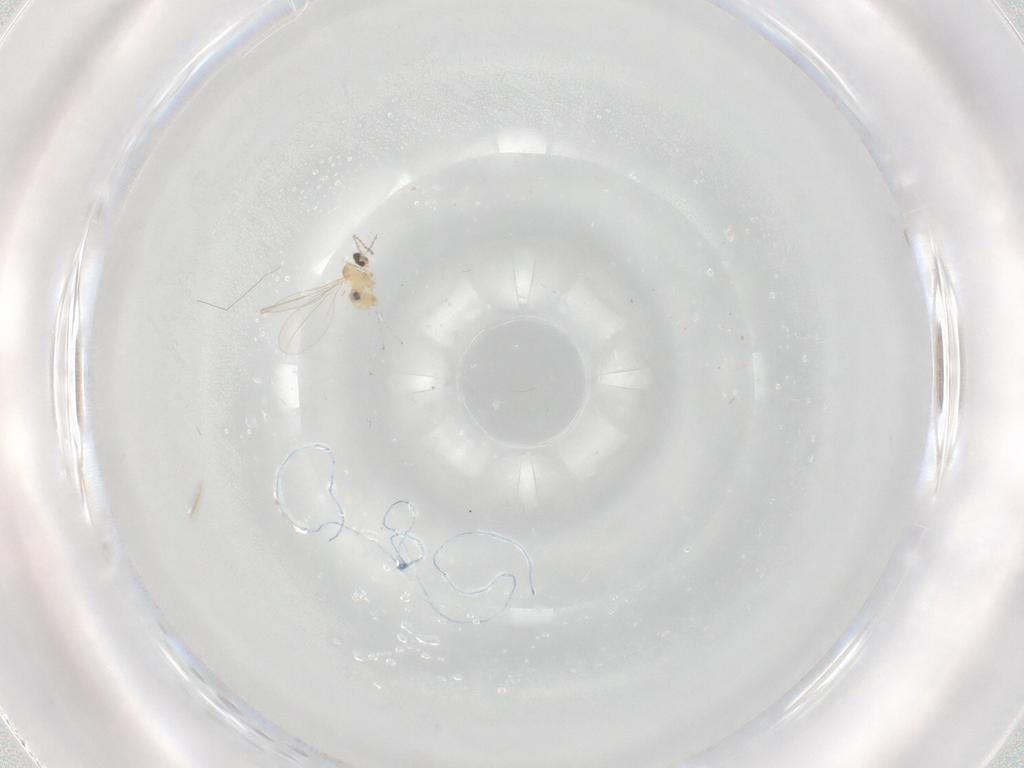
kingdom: Animalia
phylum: Arthropoda
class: Insecta
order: Diptera
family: Cecidomyiidae
